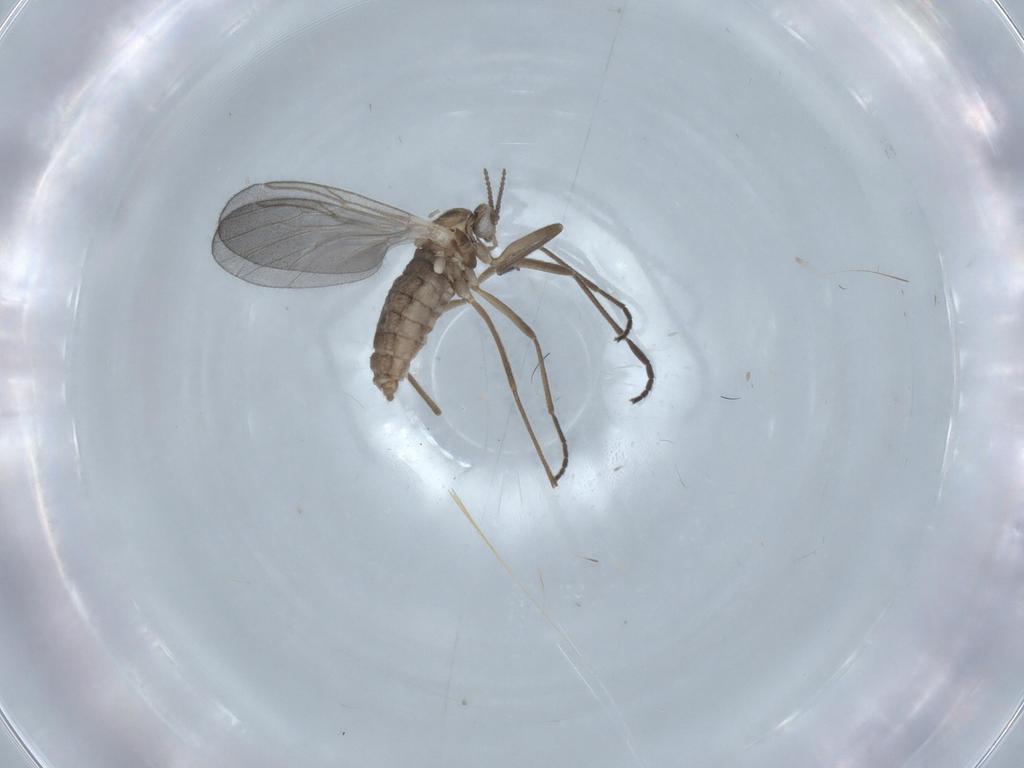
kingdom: Animalia
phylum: Arthropoda
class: Insecta
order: Diptera
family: Cecidomyiidae
